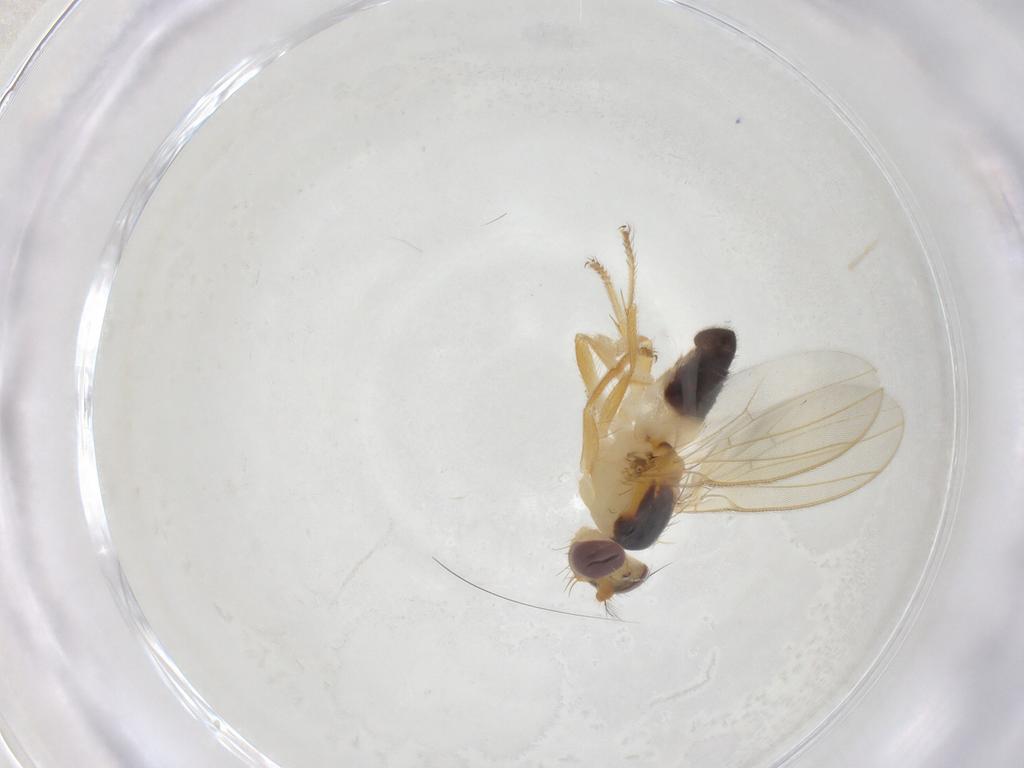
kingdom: Animalia
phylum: Arthropoda
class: Insecta
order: Diptera
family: Periscelididae
